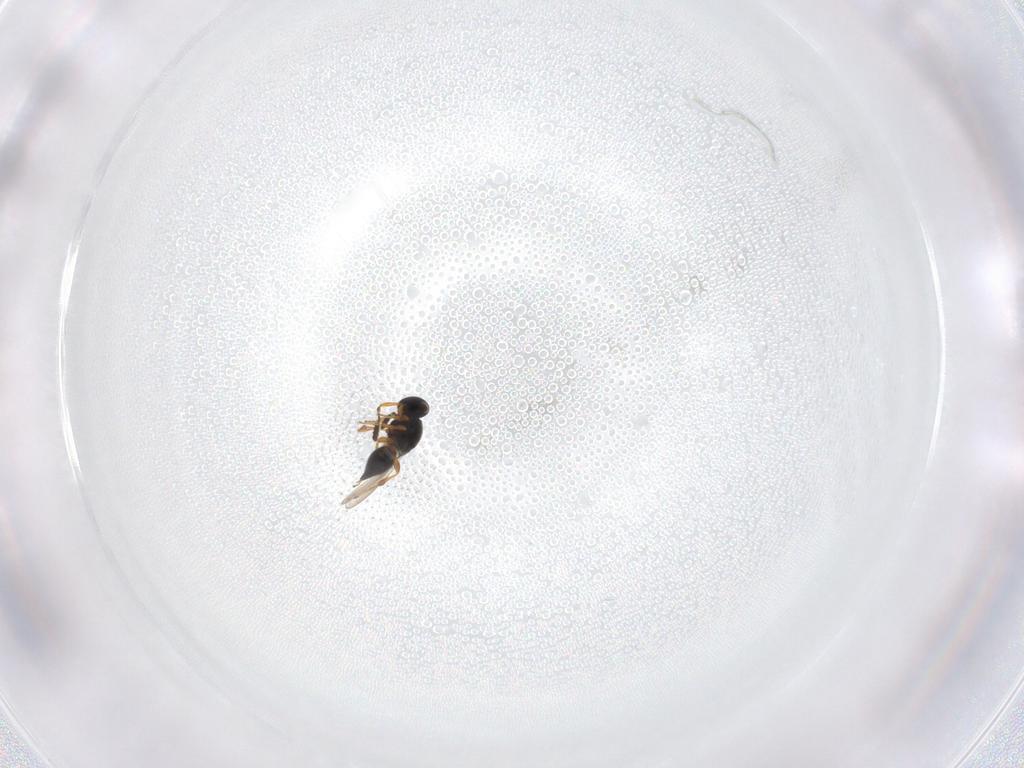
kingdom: Animalia
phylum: Arthropoda
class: Insecta
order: Hymenoptera
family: Platygastridae
